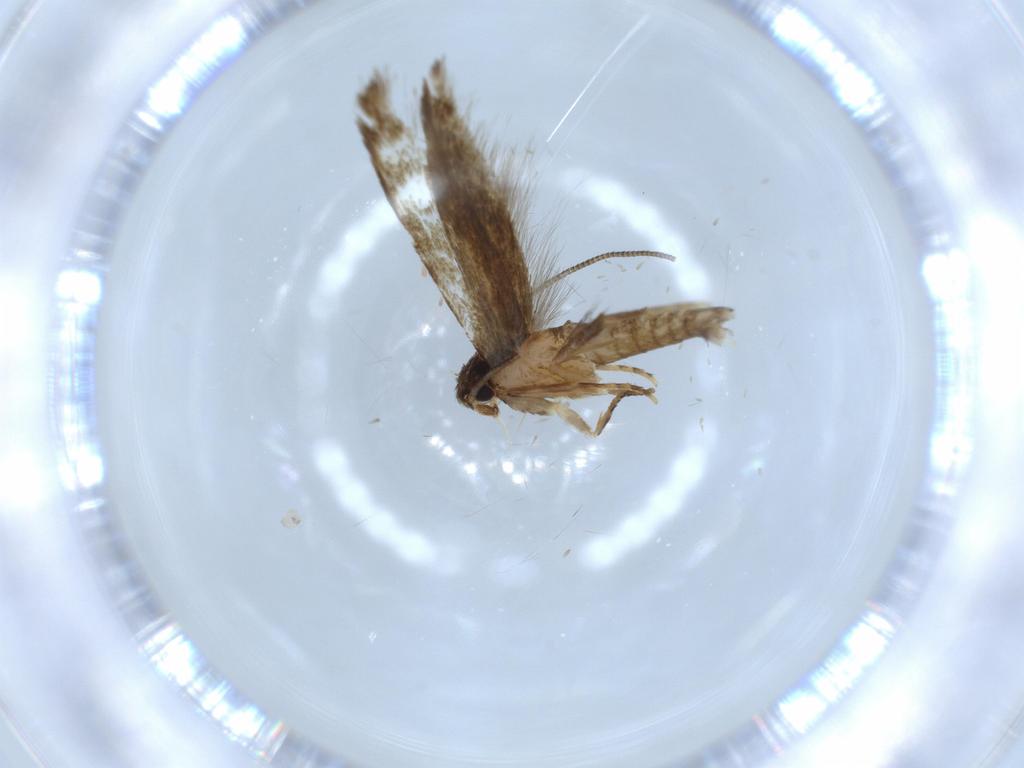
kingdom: Animalia
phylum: Arthropoda
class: Insecta
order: Lepidoptera
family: Tineidae
